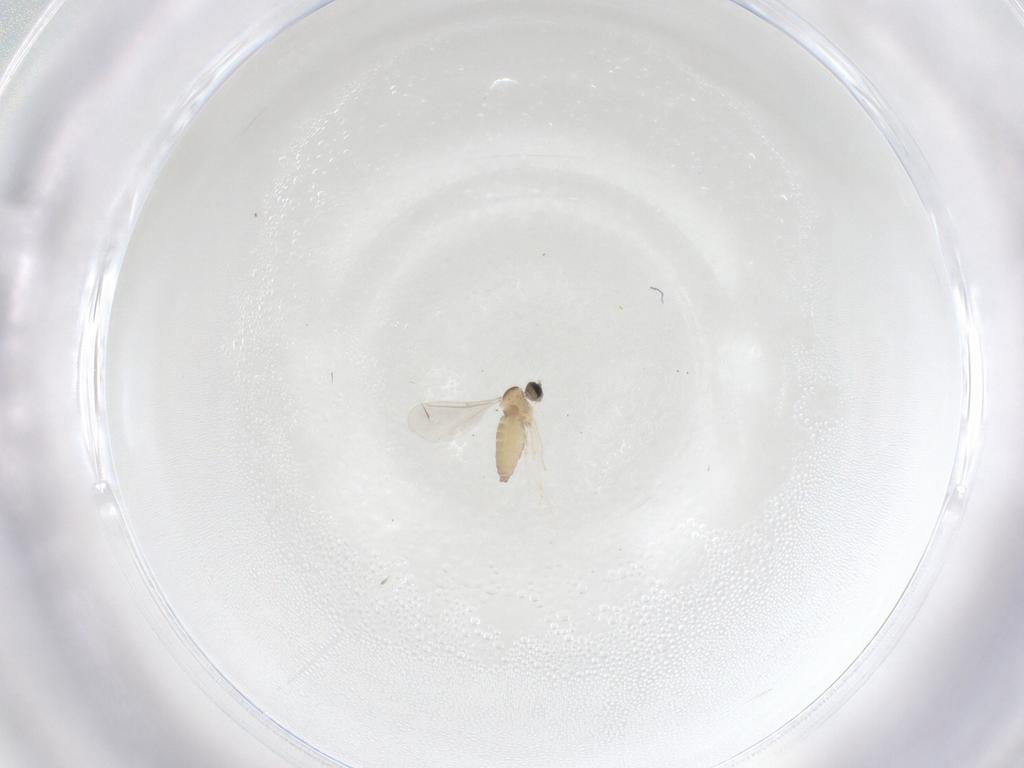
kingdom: Animalia
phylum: Arthropoda
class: Insecta
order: Diptera
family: Cecidomyiidae
